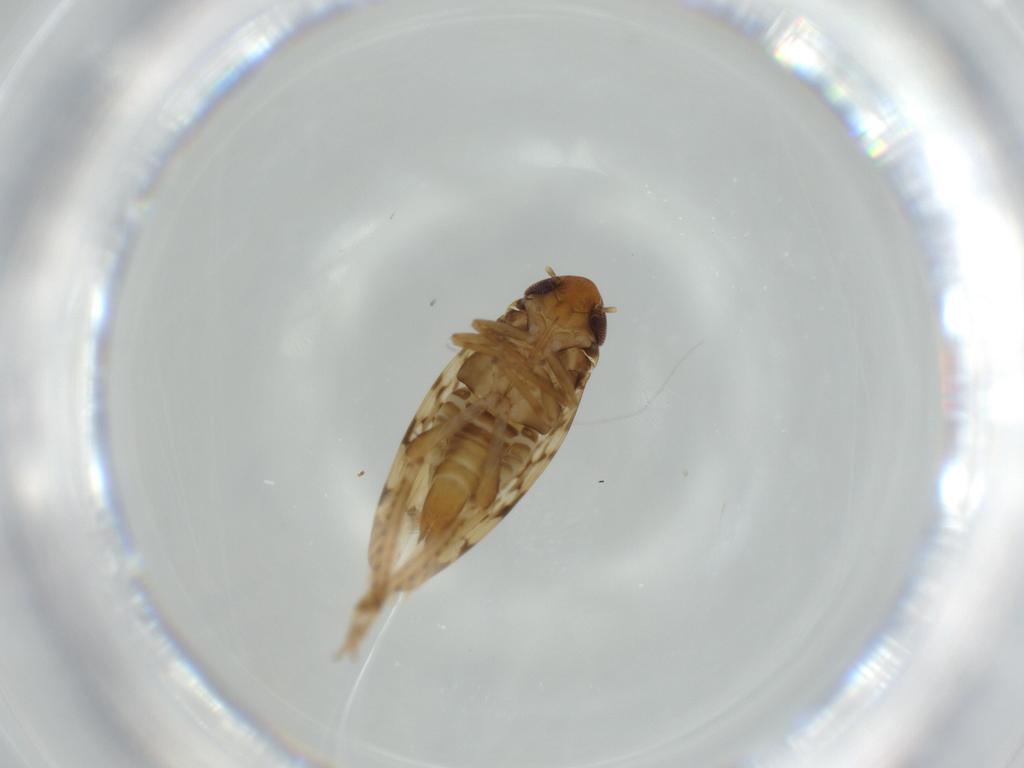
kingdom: Animalia
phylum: Arthropoda
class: Insecta
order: Hemiptera
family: Cicadellidae
